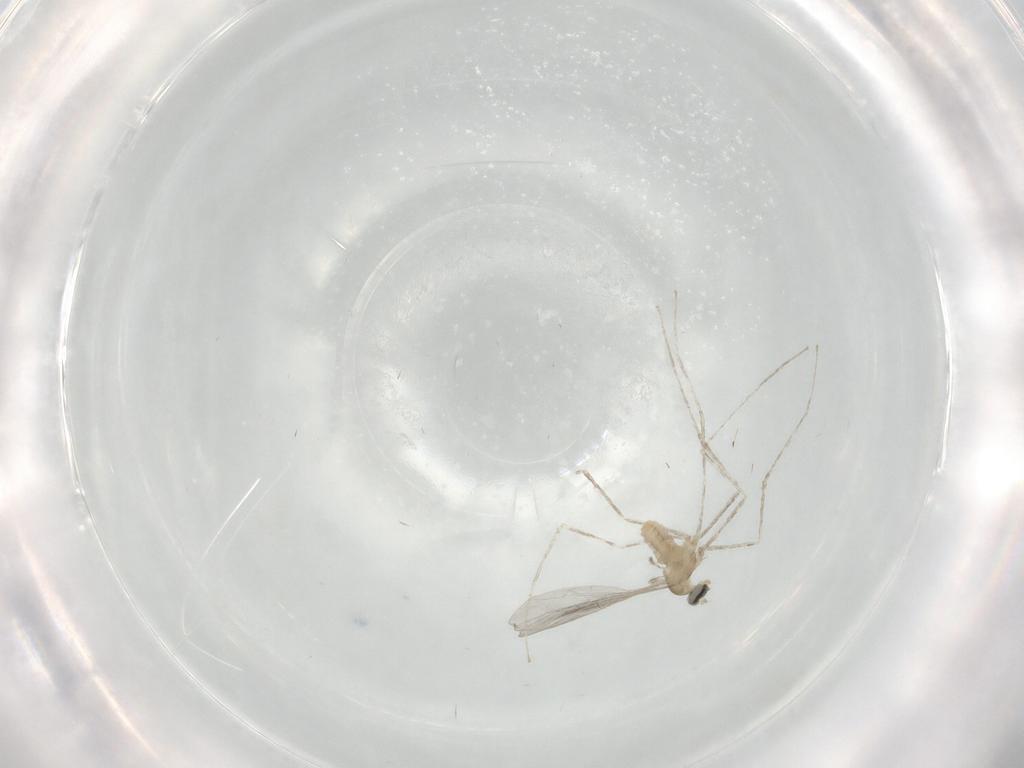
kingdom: Animalia
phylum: Arthropoda
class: Insecta
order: Diptera
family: Cecidomyiidae
